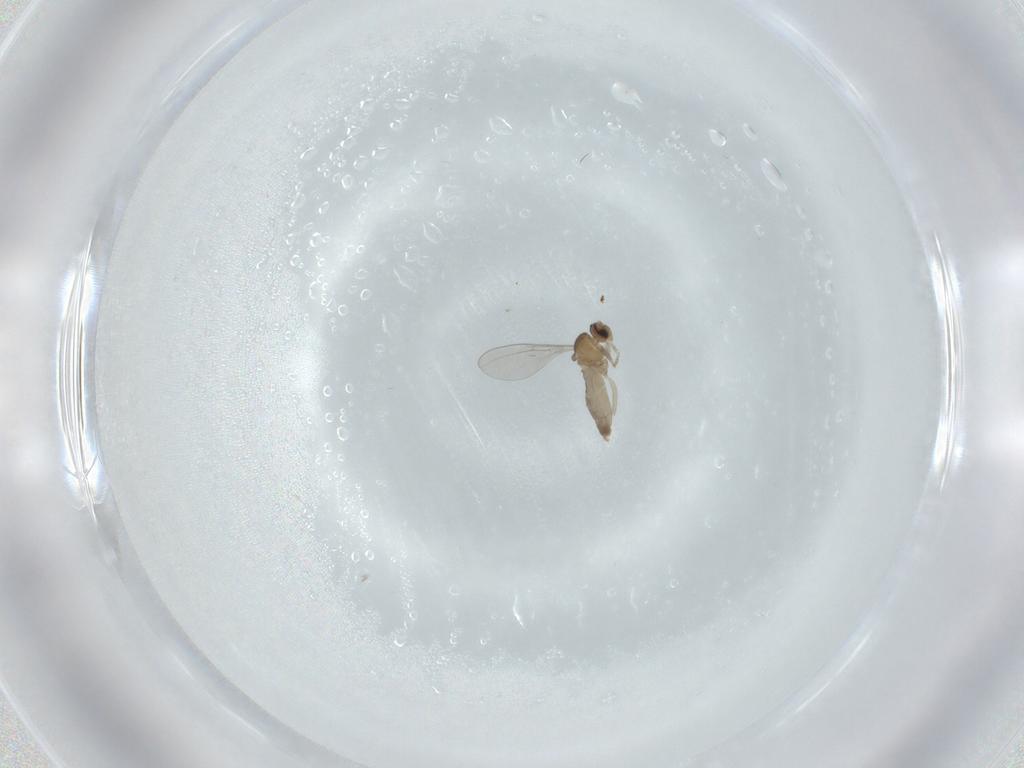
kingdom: Animalia
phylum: Arthropoda
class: Insecta
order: Diptera
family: Cecidomyiidae
